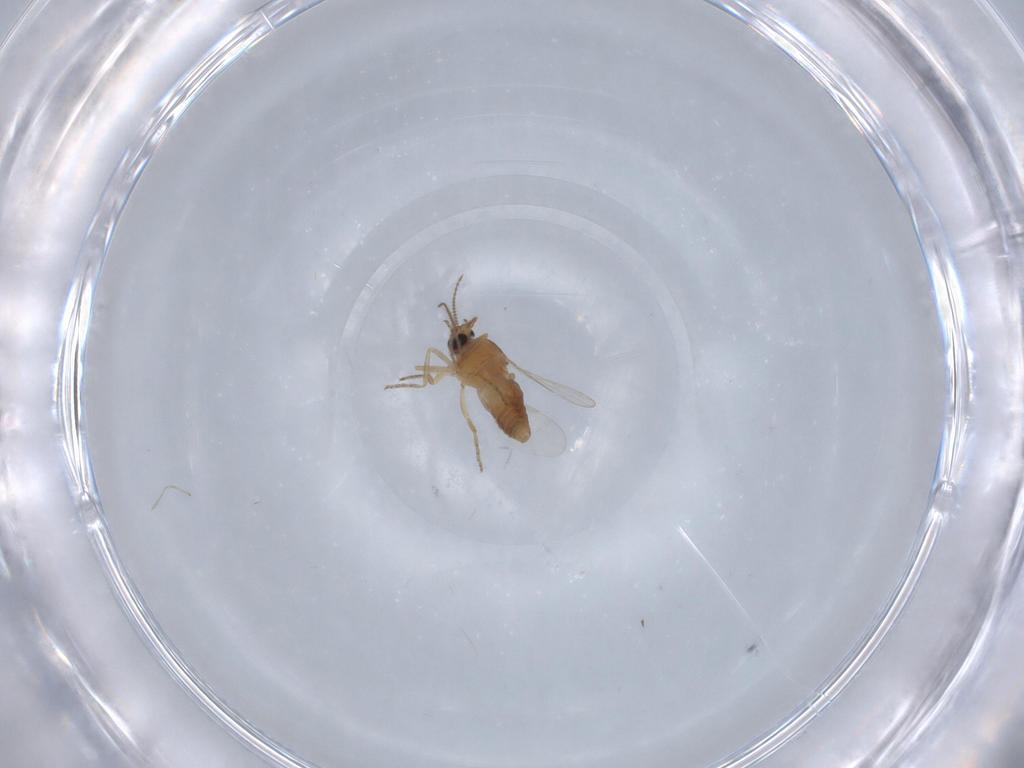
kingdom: Animalia
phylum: Arthropoda
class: Insecta
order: Diptera
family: Ceratopogonidae
